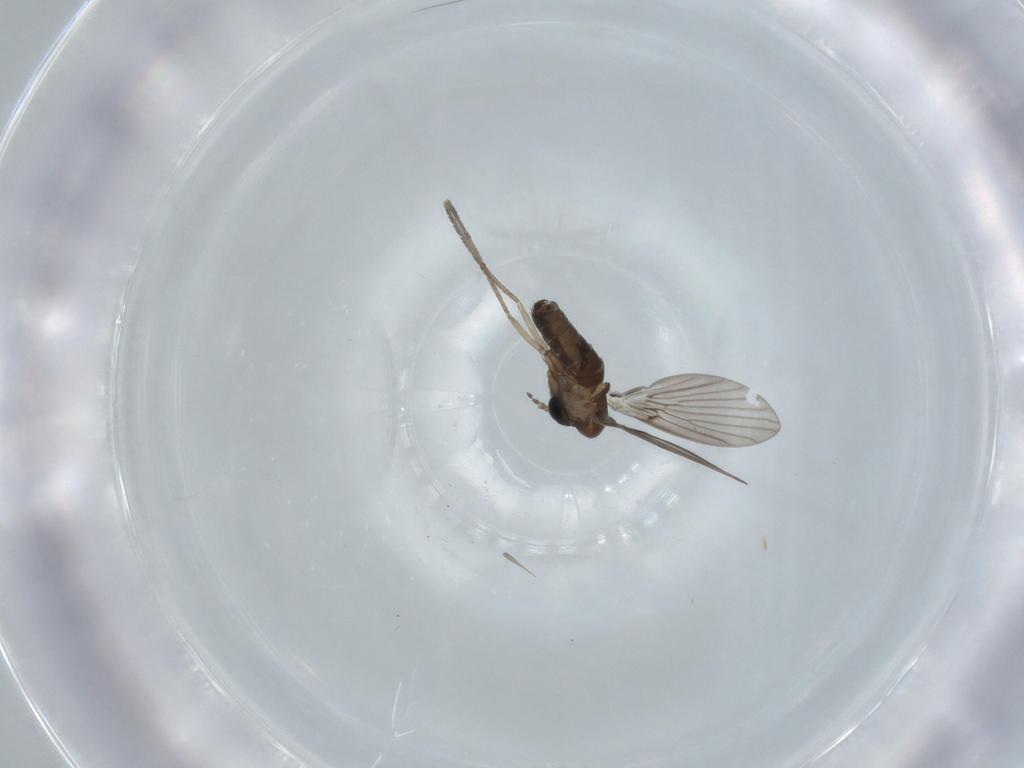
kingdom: Animalia
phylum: Arthropoda
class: Insecta
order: Diptera
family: Psychodidae
